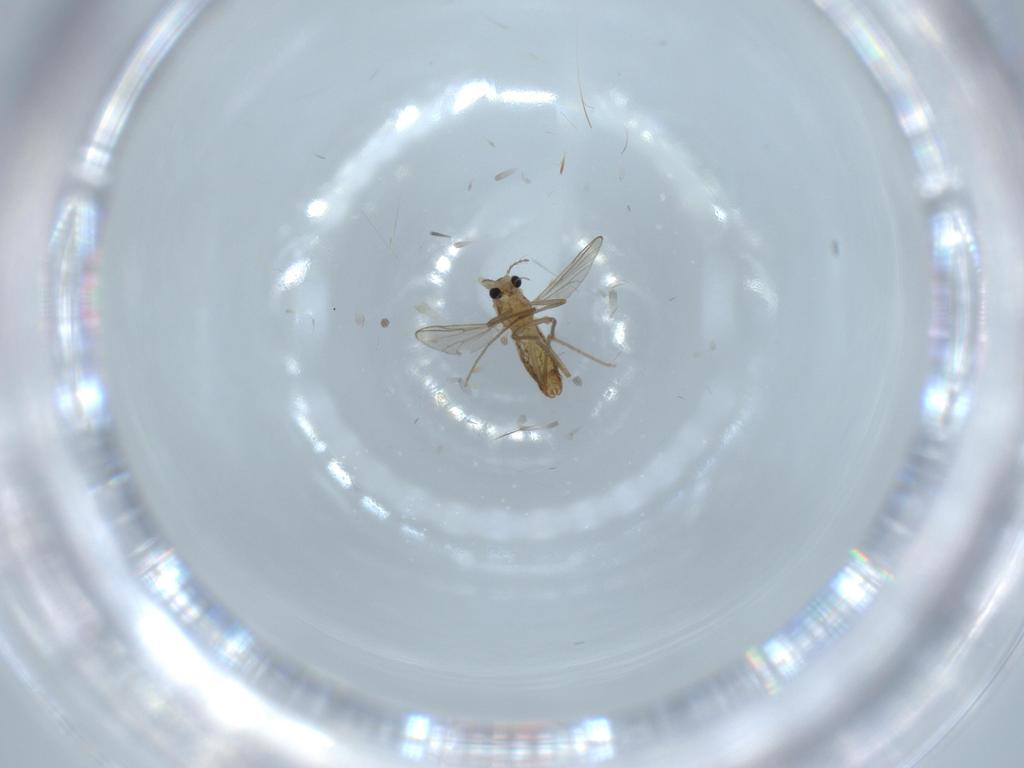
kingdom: Animalia
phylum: Arthropoda
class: Insecta
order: Diptera
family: Chironomidae
